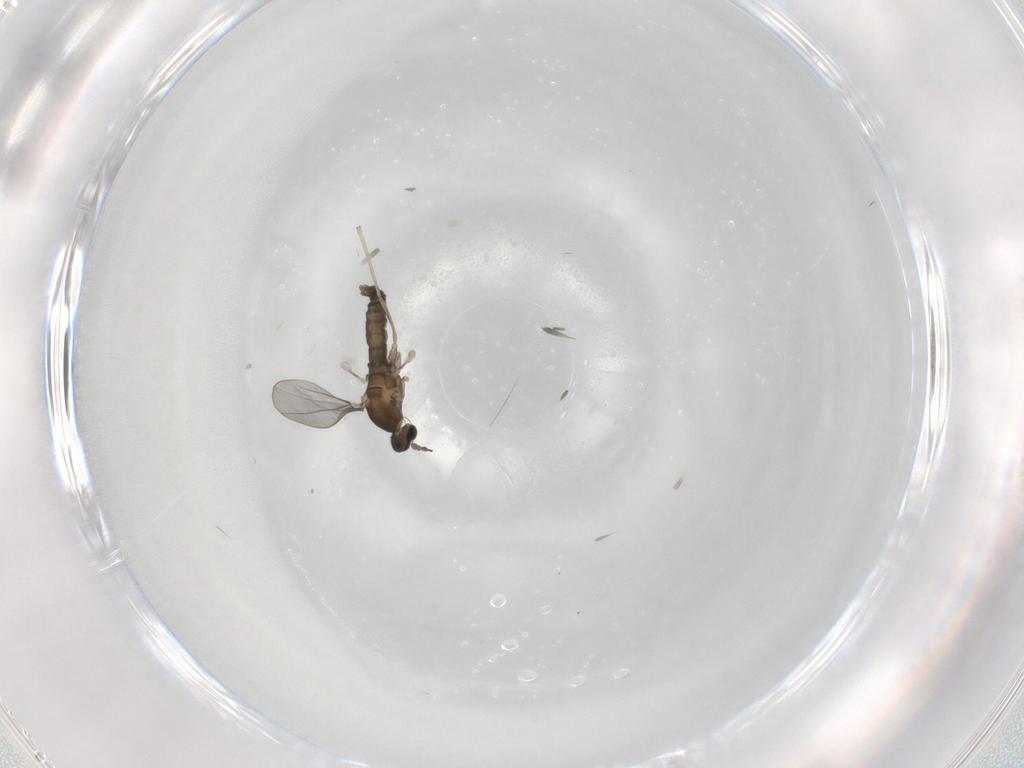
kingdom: Animalia
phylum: Arthropoda
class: Insecta
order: Diptera
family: Cecidomyiidae
